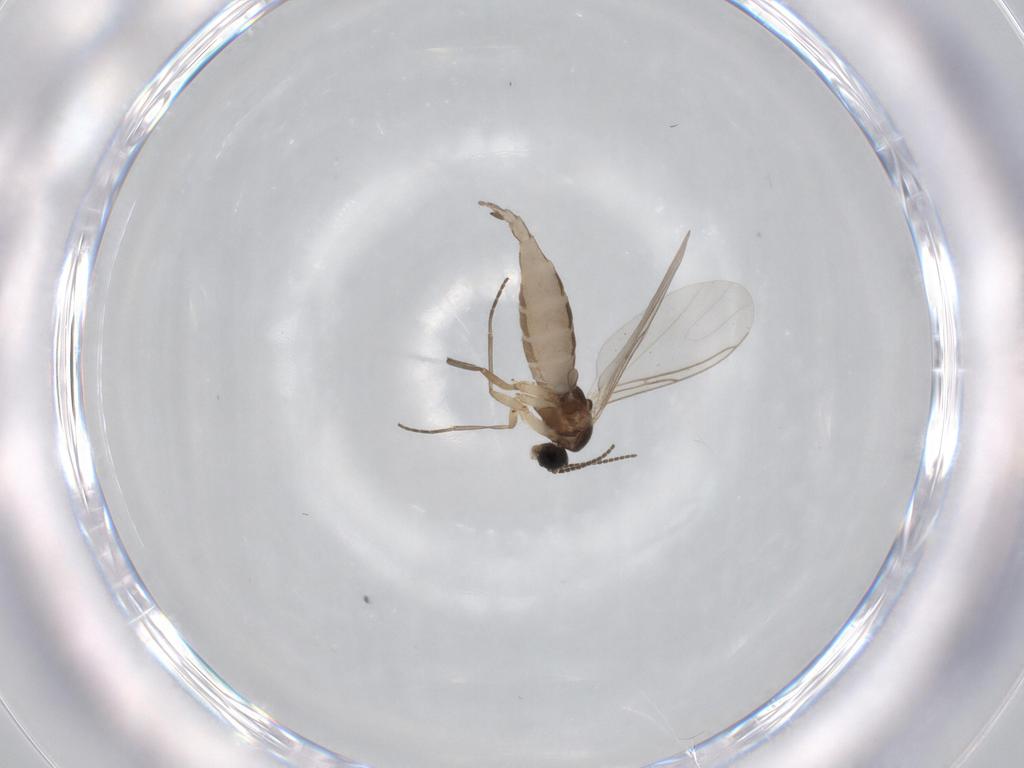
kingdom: Animalia
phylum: Arthropoda
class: Insecta
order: Diptera
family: Sciaridae
